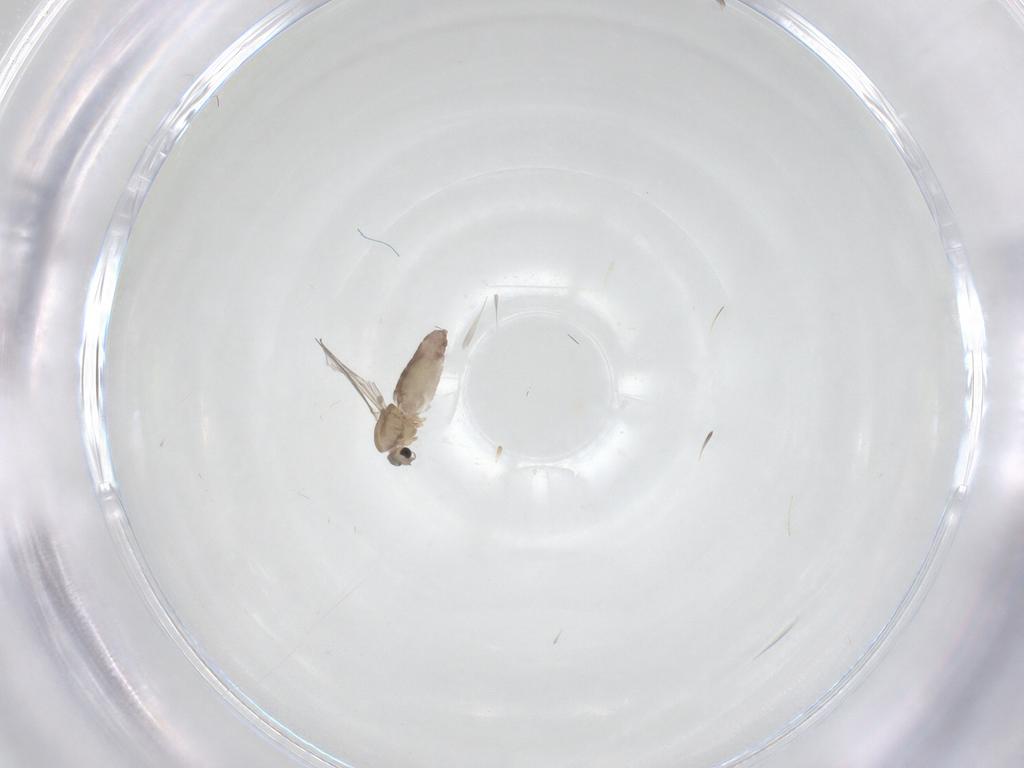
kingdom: Animalia
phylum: Arthropoda
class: Insecta
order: Diptera
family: Chironomidae
